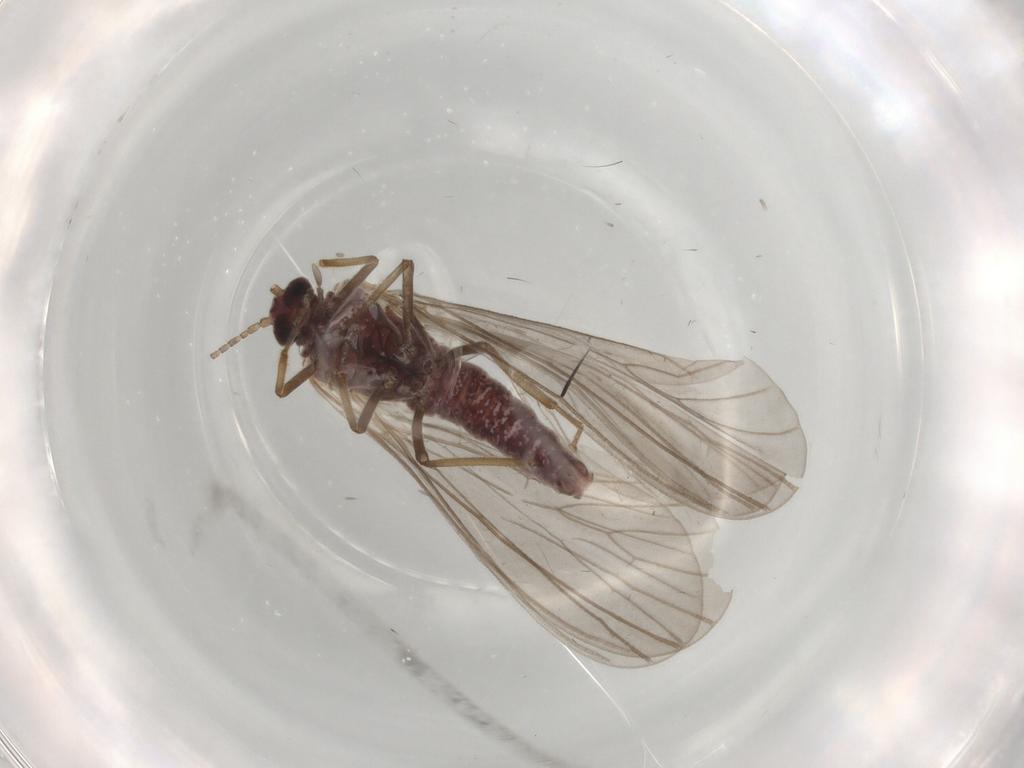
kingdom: Animalia
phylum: Arthropoda
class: Insecta
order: Neuroptera
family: Coniopterygidae
